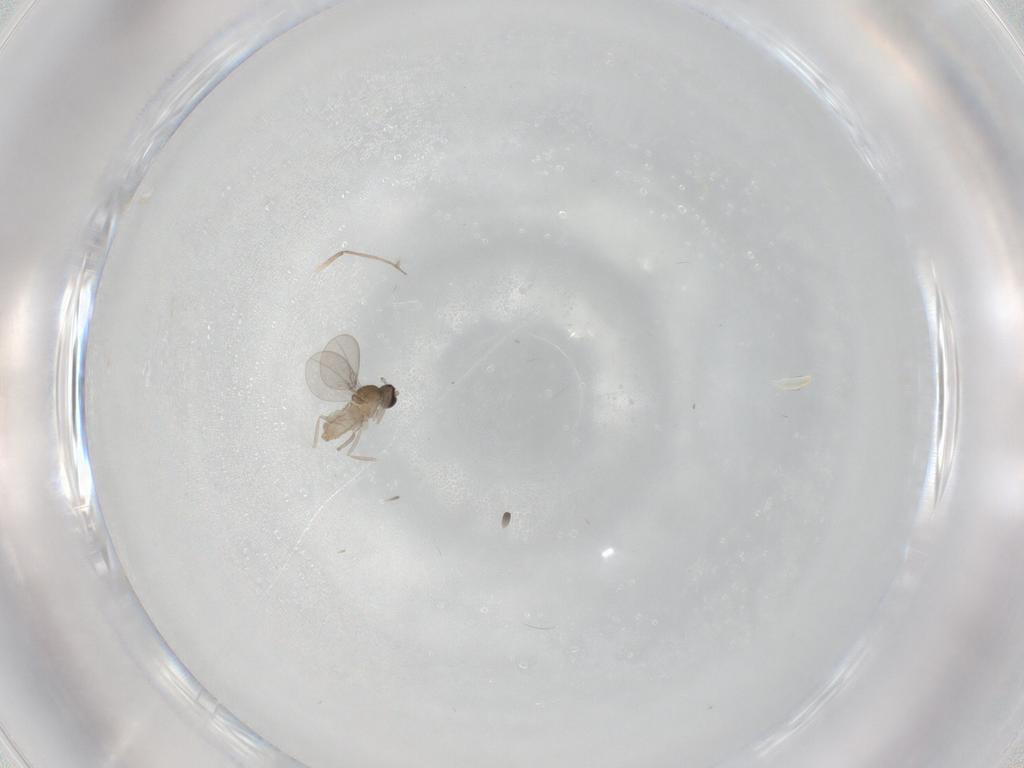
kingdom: Animalia
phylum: Arthropoda
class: Insecta
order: Diptera
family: Cecidomyiidae
